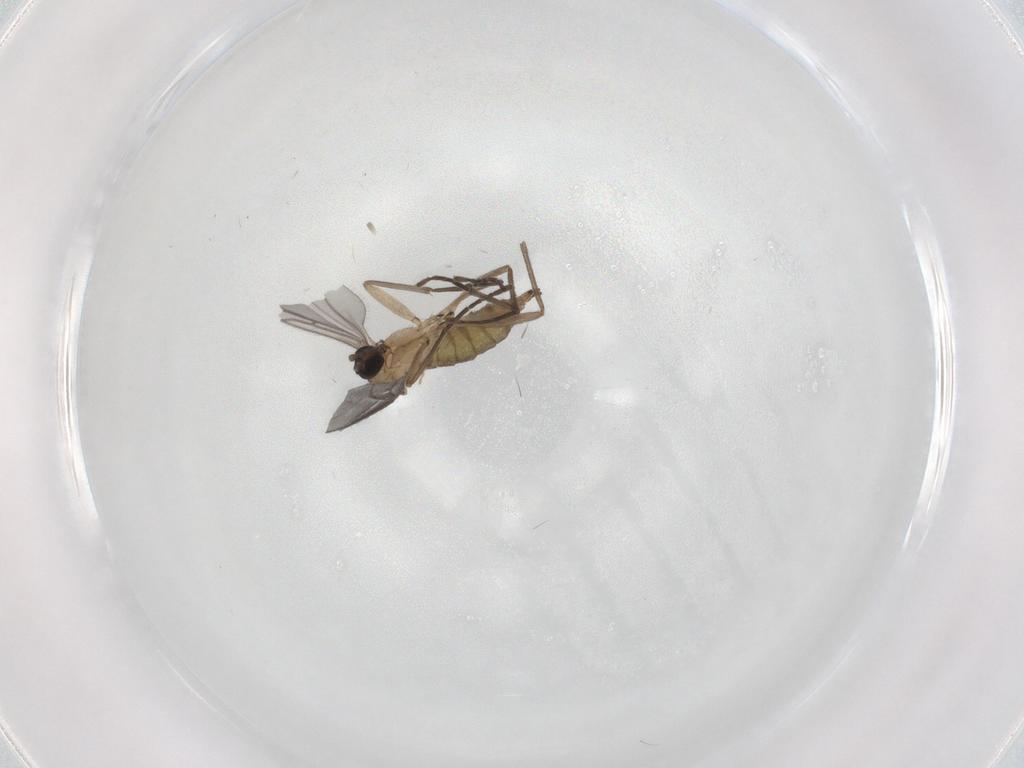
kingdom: Animalia
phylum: Arthropoda
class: Insecta
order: Diptera
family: Sciaridae
